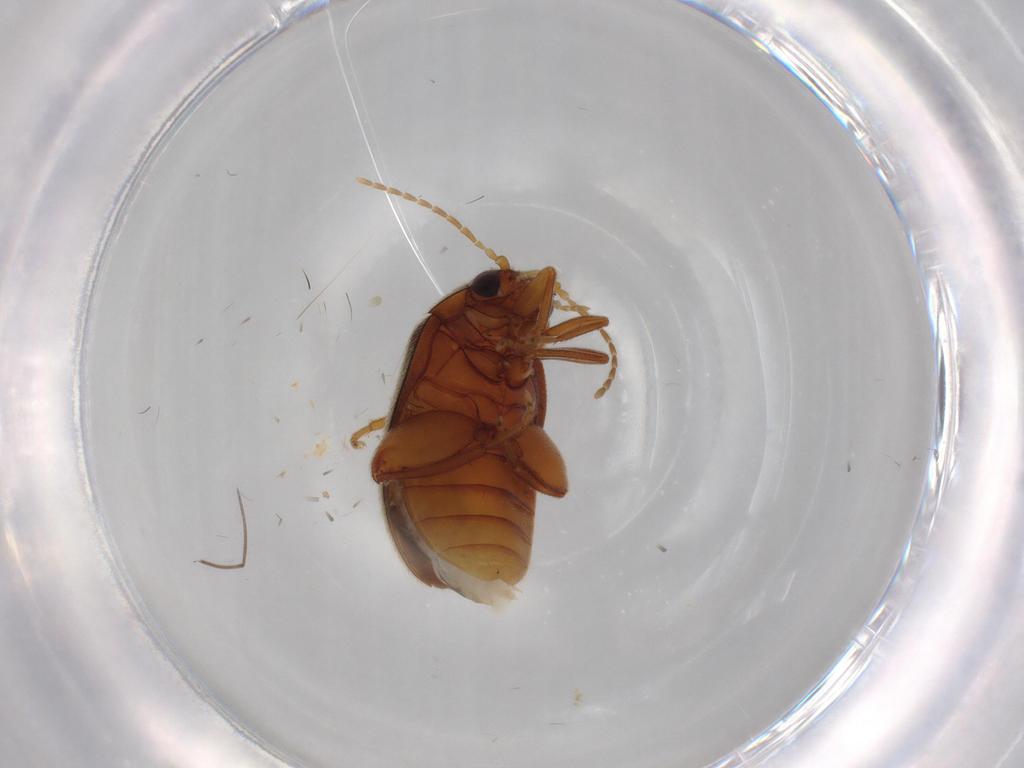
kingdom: Animalia
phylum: Arthropoda
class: Insecta
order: Coleoptera
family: Scirtidae
